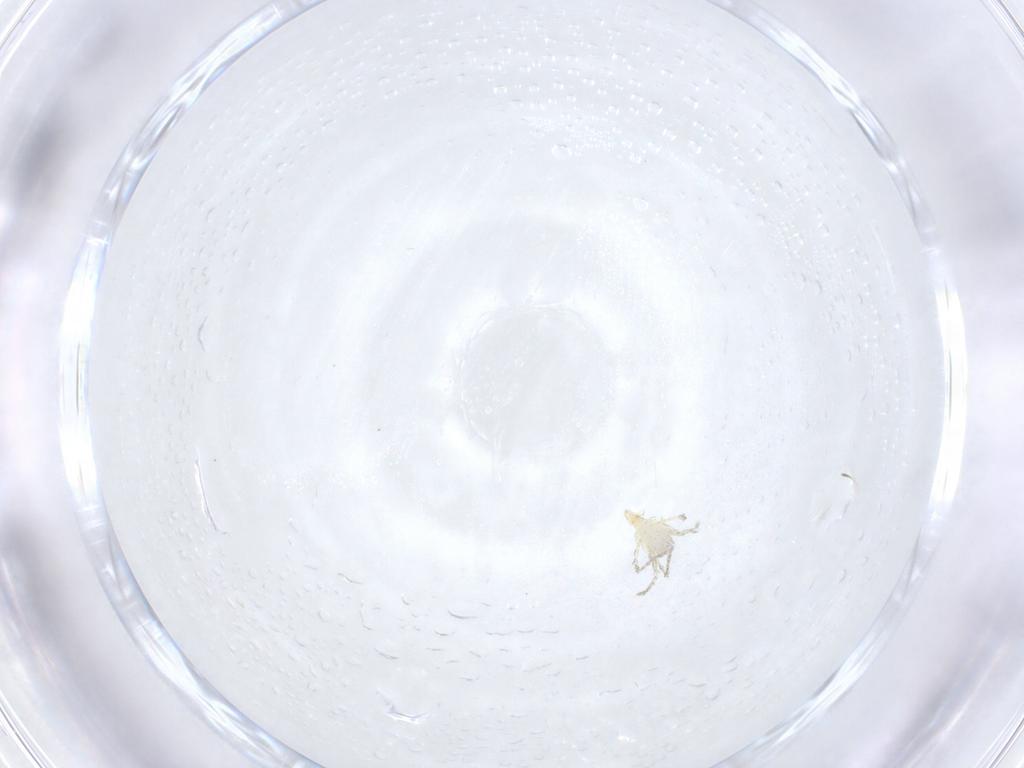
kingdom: Animalia
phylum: Arthropoda
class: Arachnida
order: Trombidiformes
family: Erythraeidae
